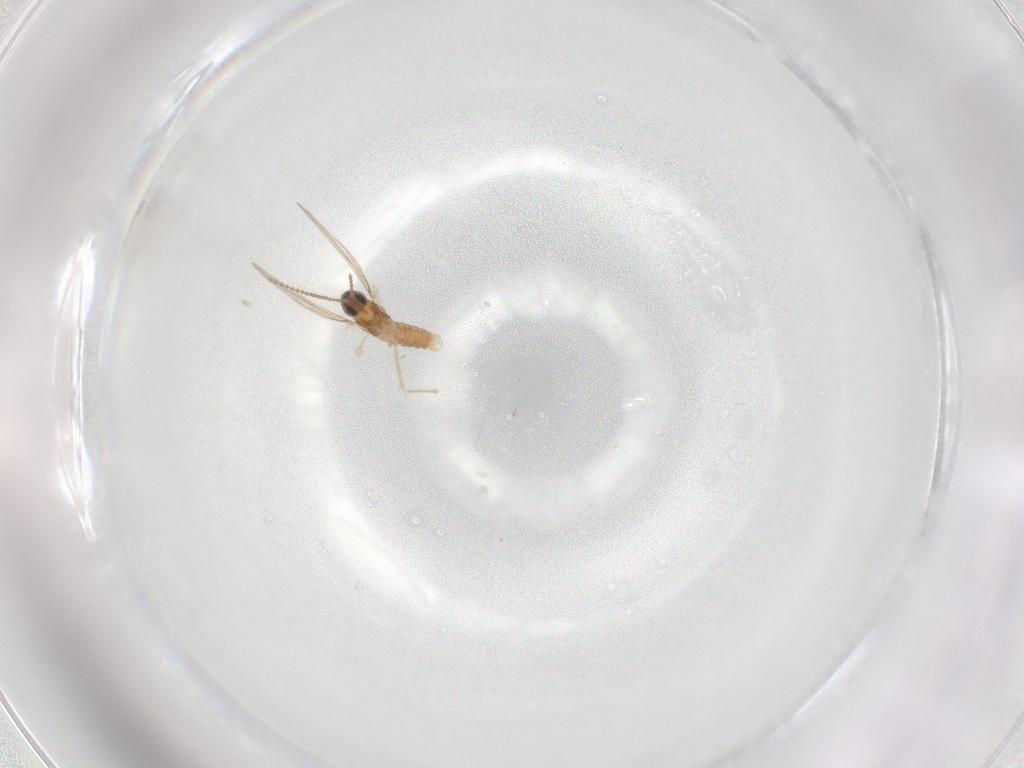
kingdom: Animalia
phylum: Arthropoda
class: Insecta
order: Diptera
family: Cecidomyiidae
